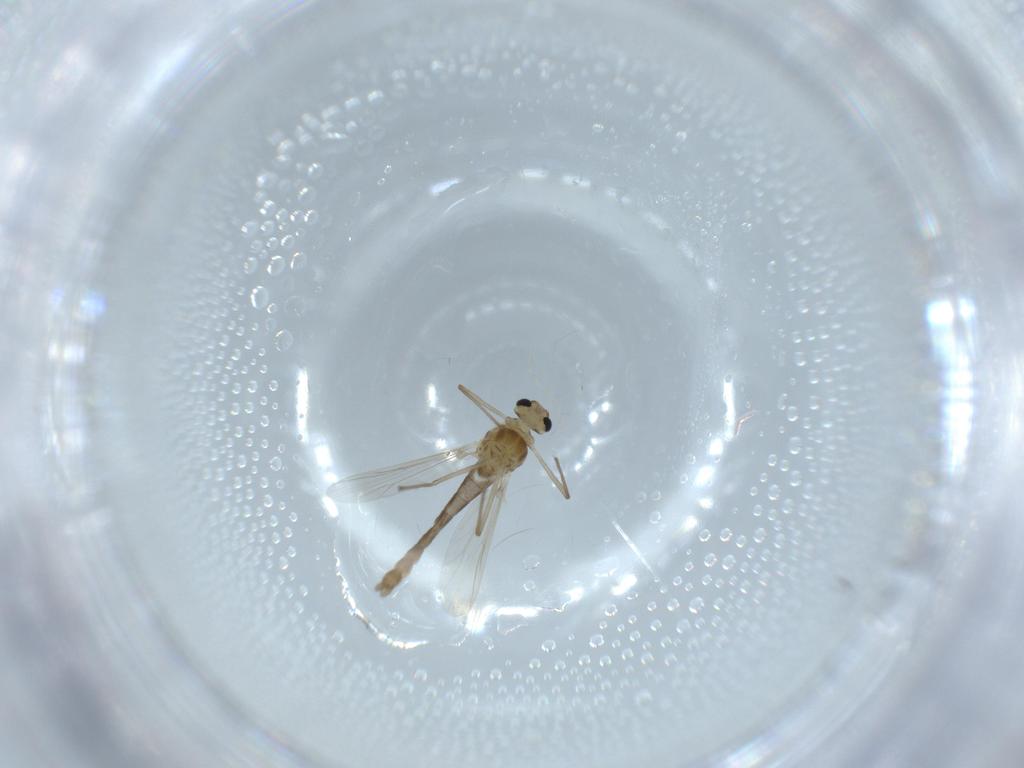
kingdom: Animalia
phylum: Arthropoda
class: Insecta
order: Diptera
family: Chironomidae
